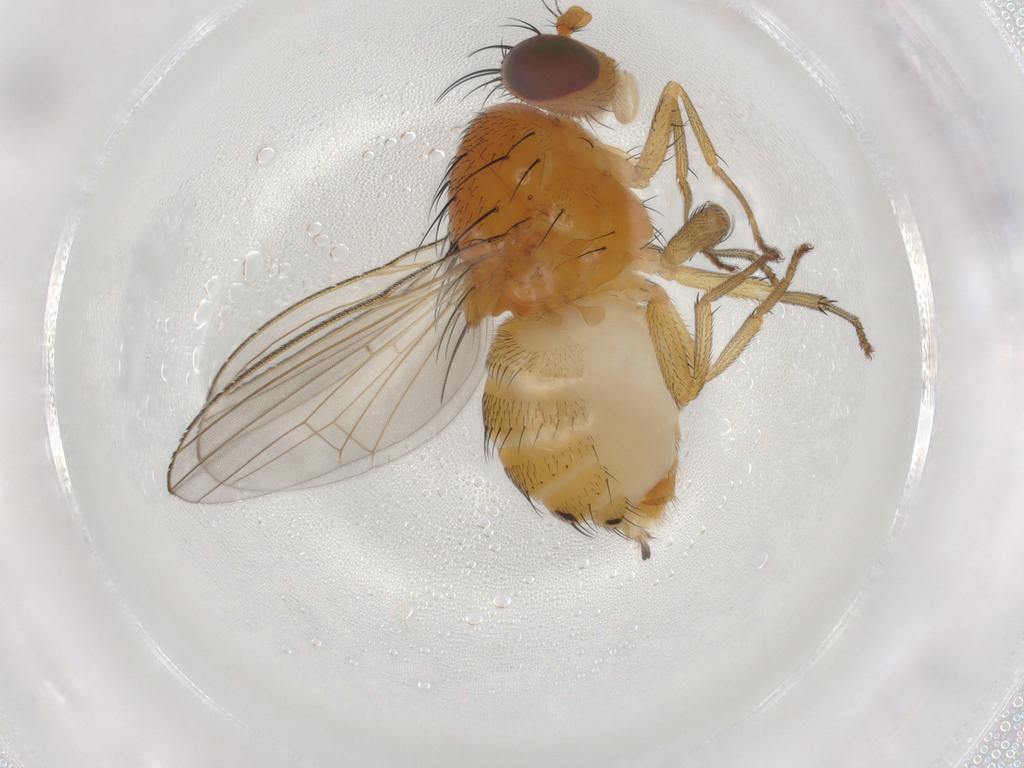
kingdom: Animalia
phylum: Arthropoda
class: Insecta
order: Diptera
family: Lauxaniidae
